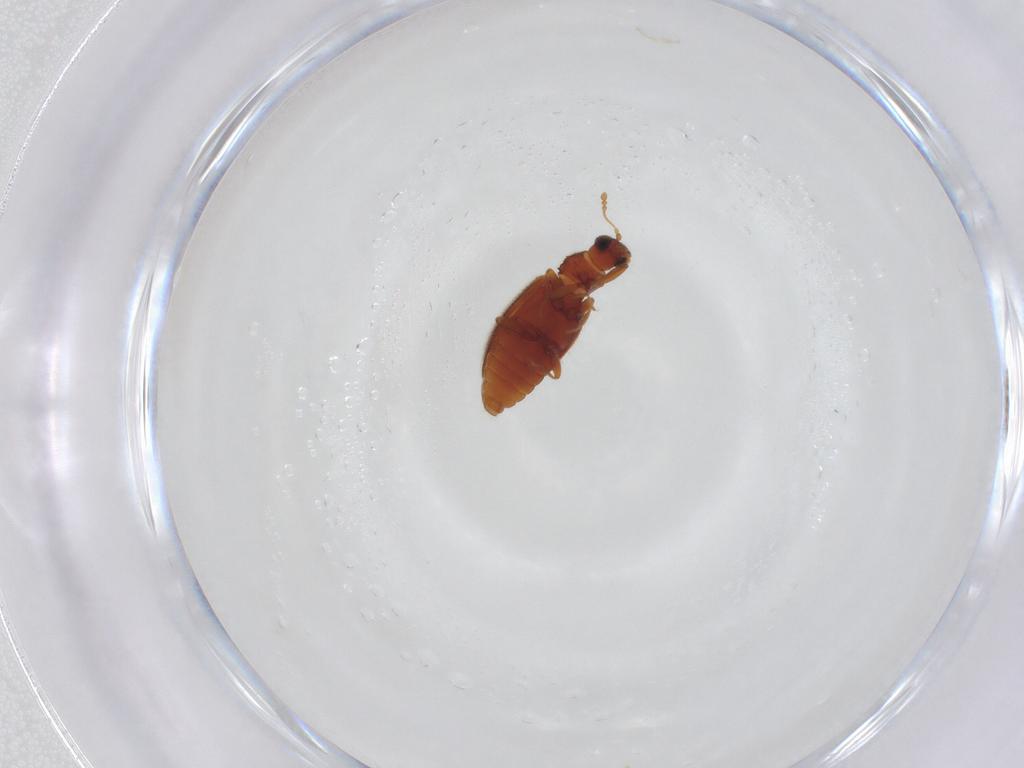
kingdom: Animalia
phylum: Arthropoda
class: Insecta
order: Coleoptera
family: Chrysomelidae
